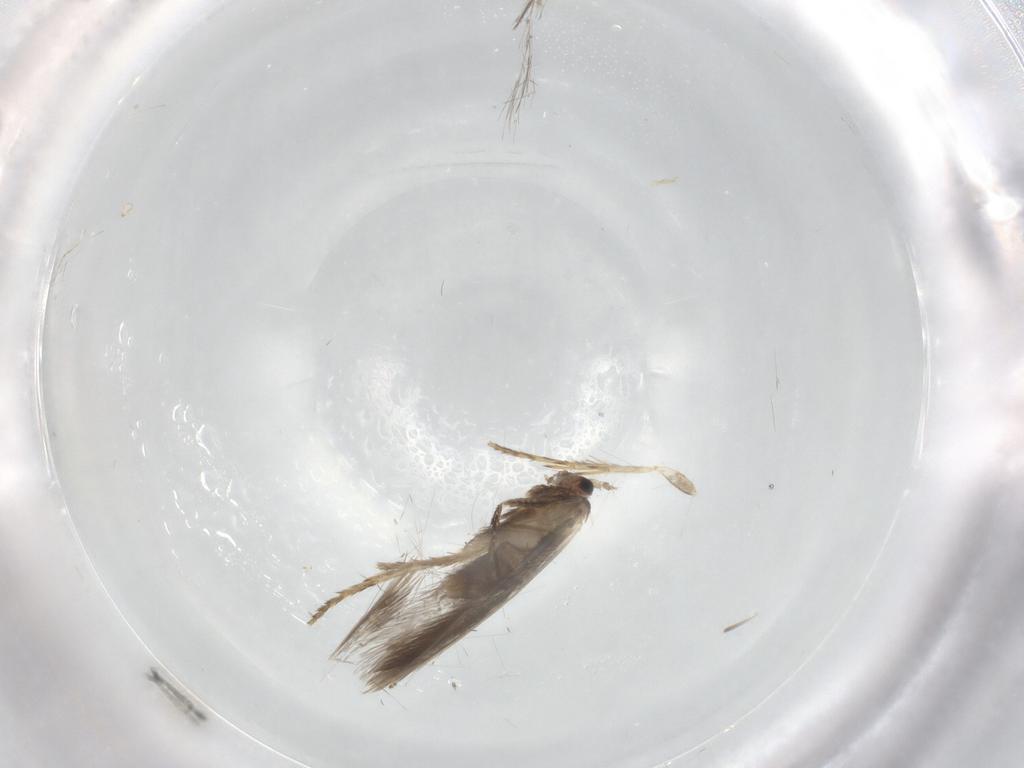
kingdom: Animalia
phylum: Arthropoda
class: Insecta
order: Lepidoptera
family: Nepticulidae
